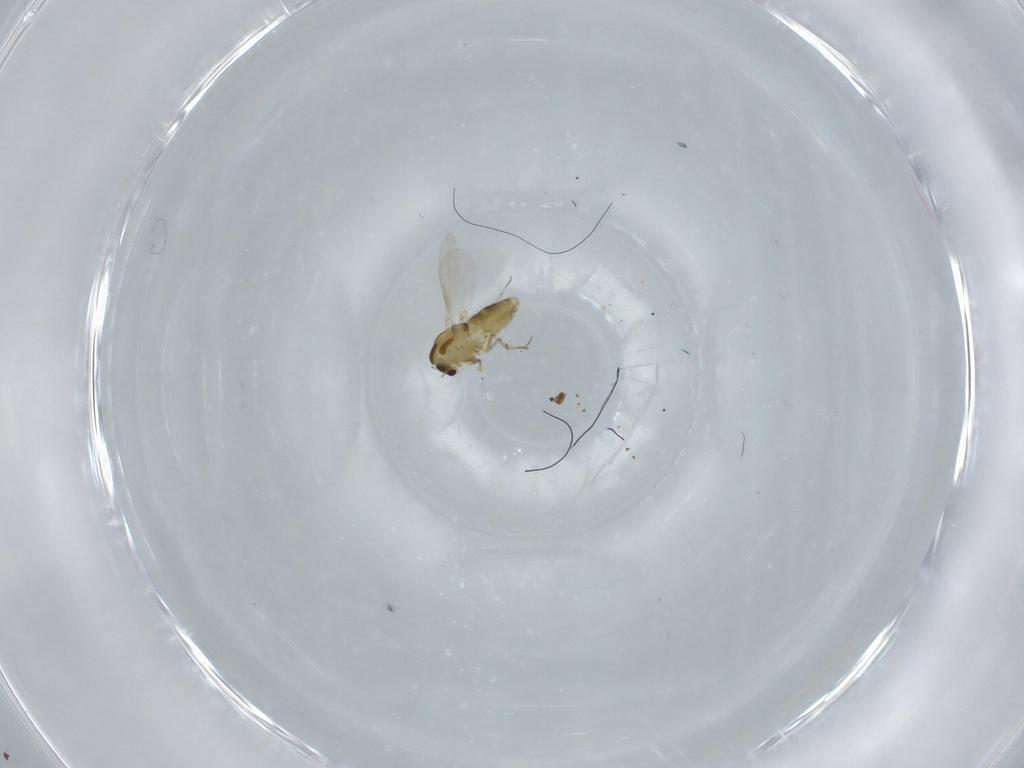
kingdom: Animalia
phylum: Arthropoda
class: Insecta
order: Diptera
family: Chironomidae
